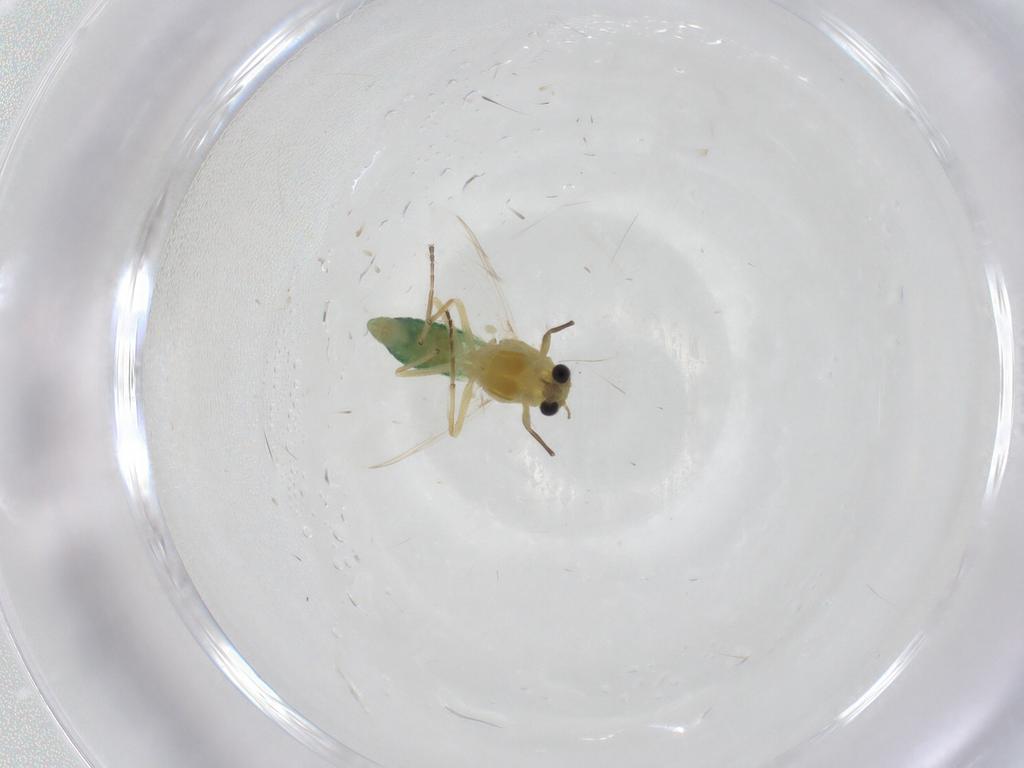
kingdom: Animalia
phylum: Arthropoda
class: Insecta
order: Diptera
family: Chironomidae
